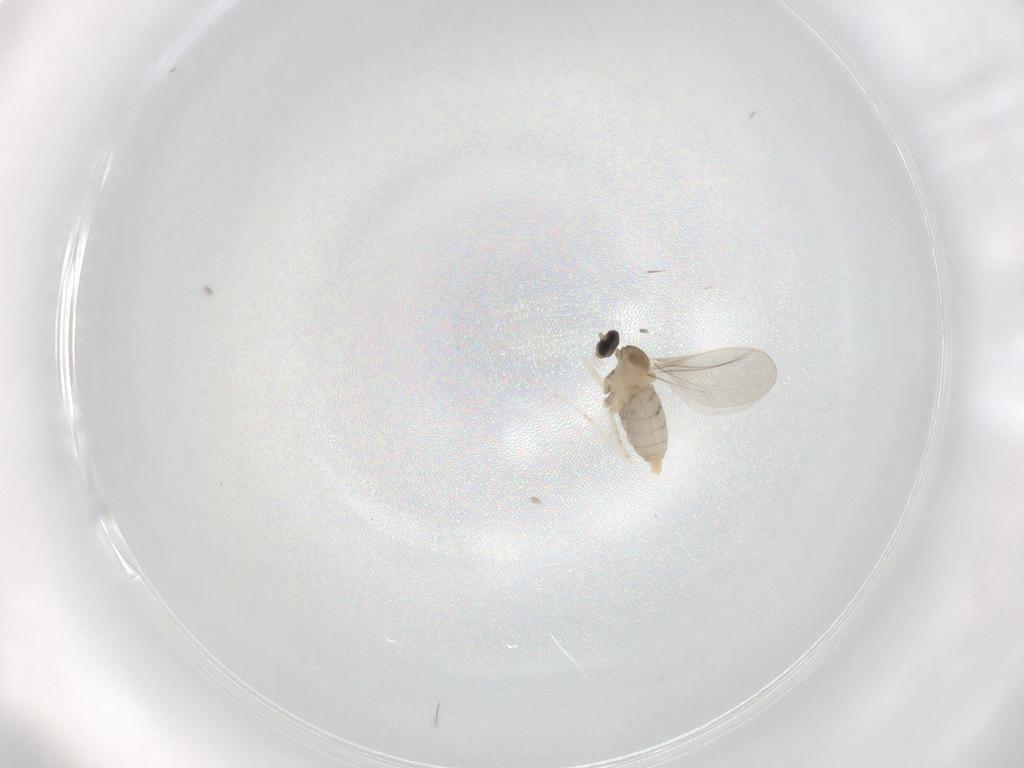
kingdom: Animalia
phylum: Arthropoda
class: Insecta
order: Diptera
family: Cecidomyiidae
